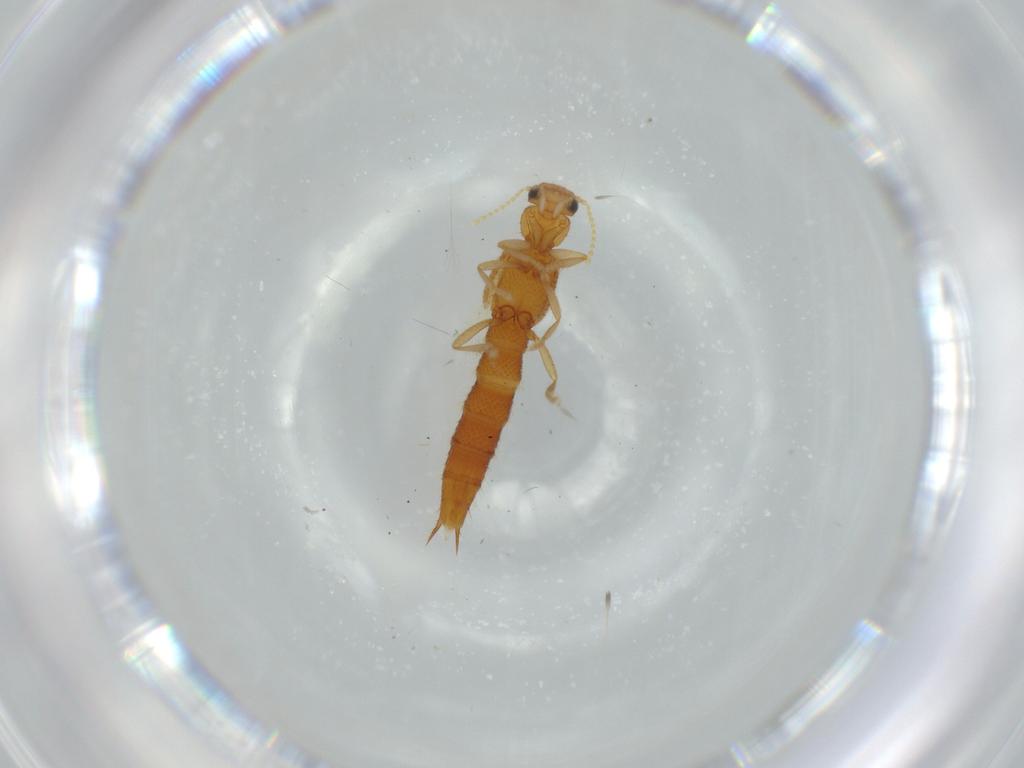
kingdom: Animalia
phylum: Arthropoda
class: Insecta
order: Coleoptera
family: Staphylinidae
